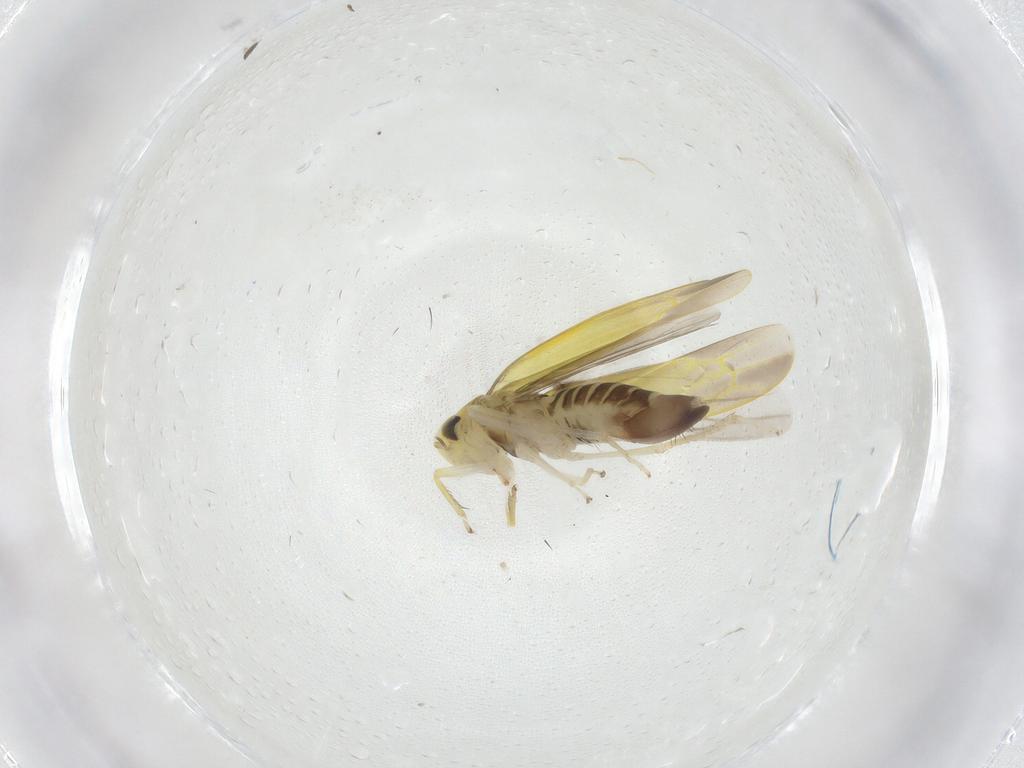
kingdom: Animalia
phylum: Arthropoda
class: Insecta
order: Hemiptera
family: Cicadellidae
